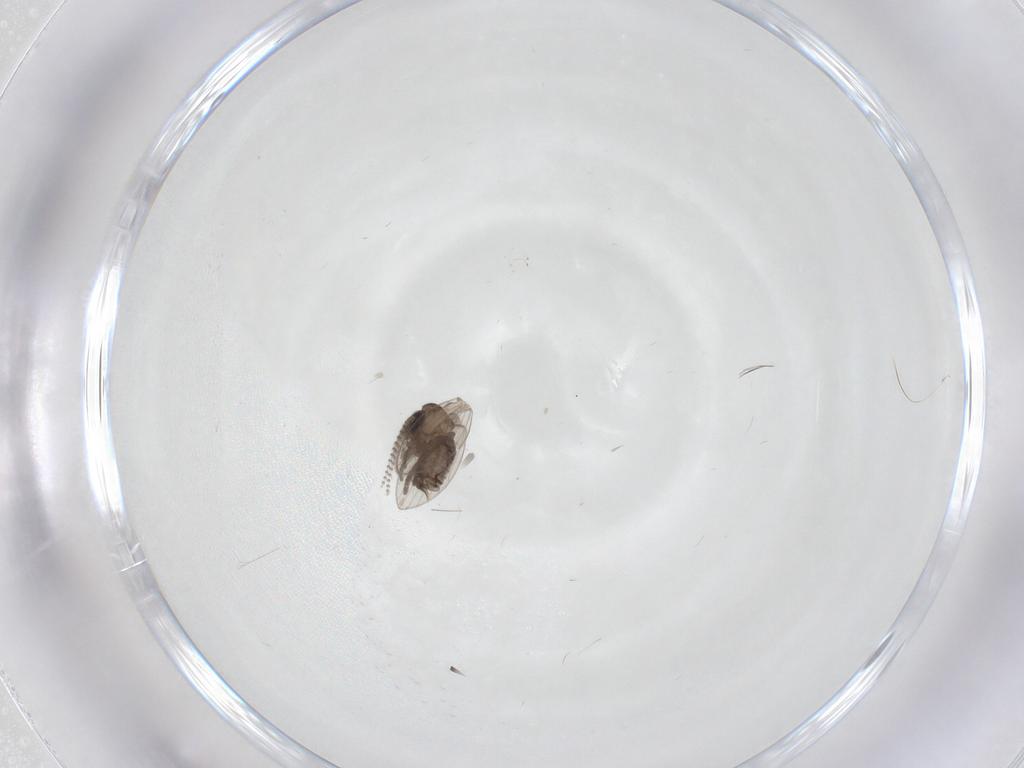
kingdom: Animalia
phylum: Arthropoda
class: Insecta
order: Diptera
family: Psychodidae
